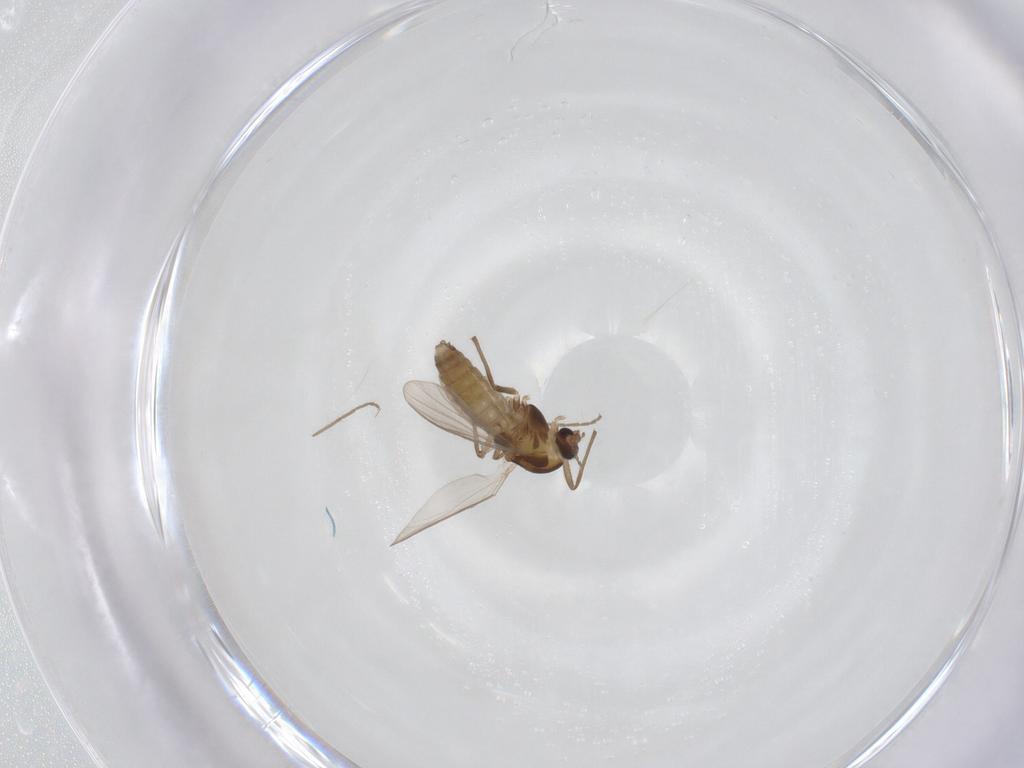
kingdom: Animalia
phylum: Arthropoda
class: Insecta
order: Diptera
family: Chironomidae
